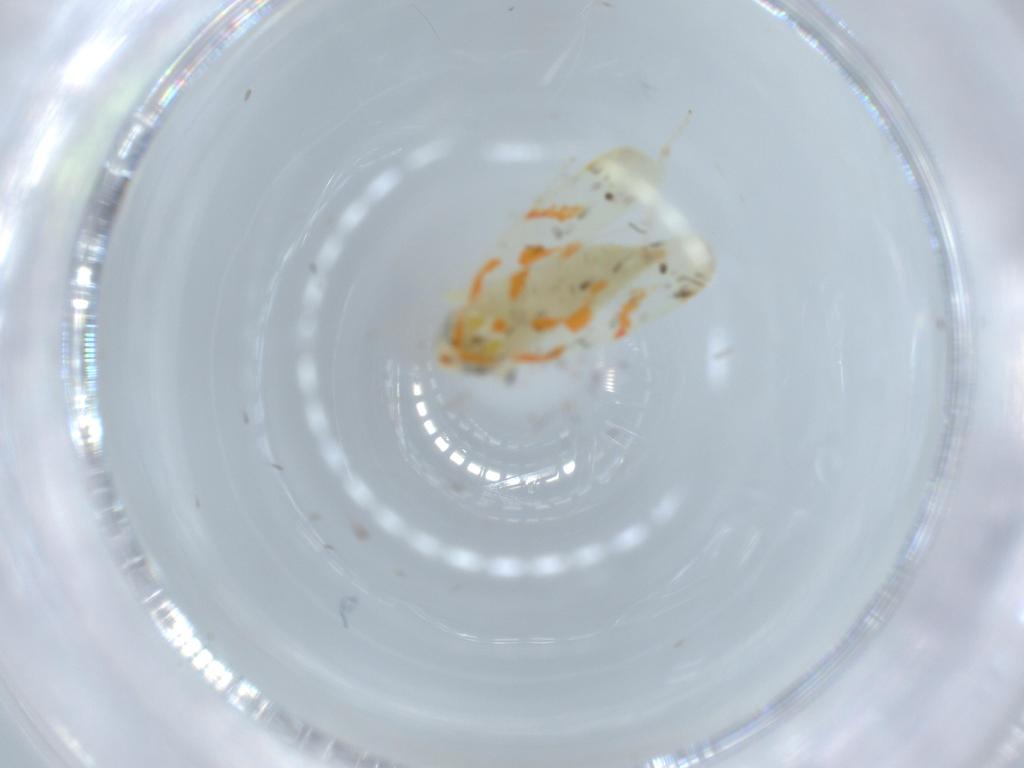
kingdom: Animalia
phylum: Arthropoda
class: Insecta
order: Hemiptera
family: Cicadellidae
